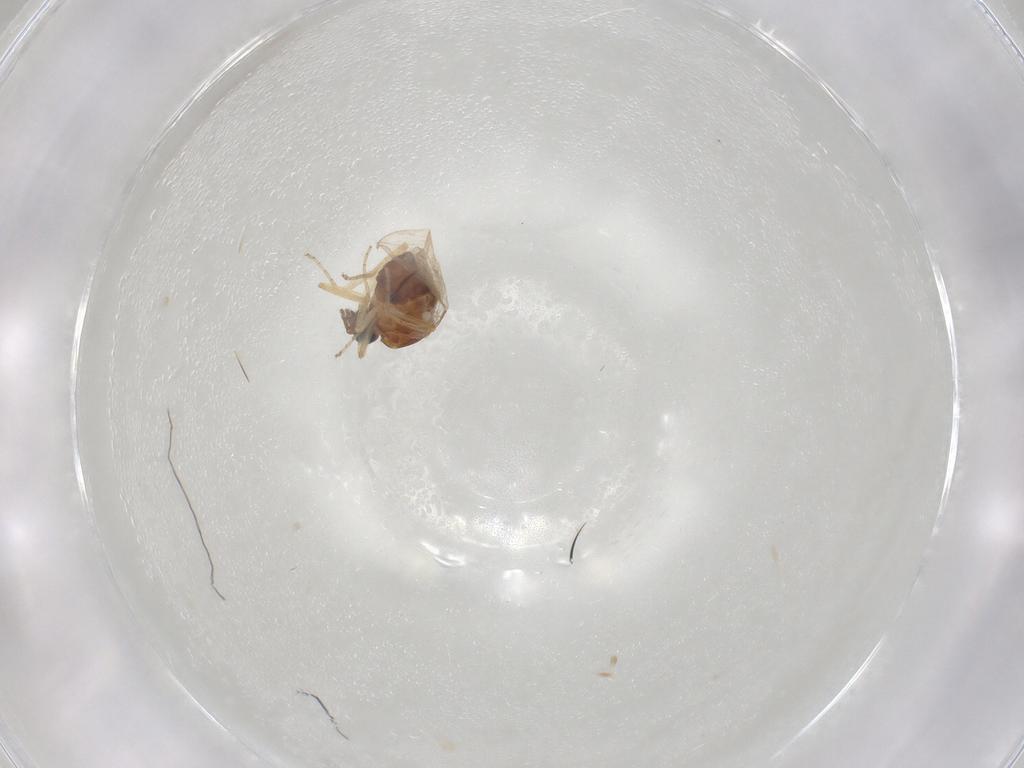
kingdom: Animalia
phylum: Arthropoda
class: Insecta
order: Diptera
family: Ceratopogonidae
